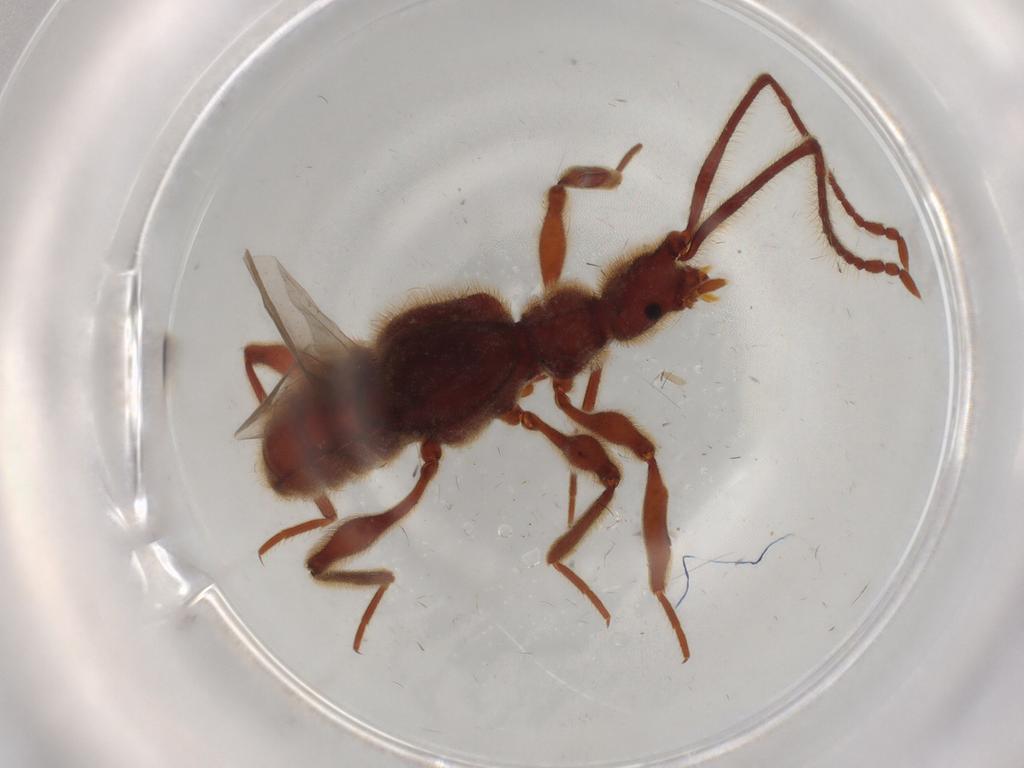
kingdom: Animalia
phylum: Arthropoda
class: Insecta
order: Coleoptera
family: Staphylinidae
